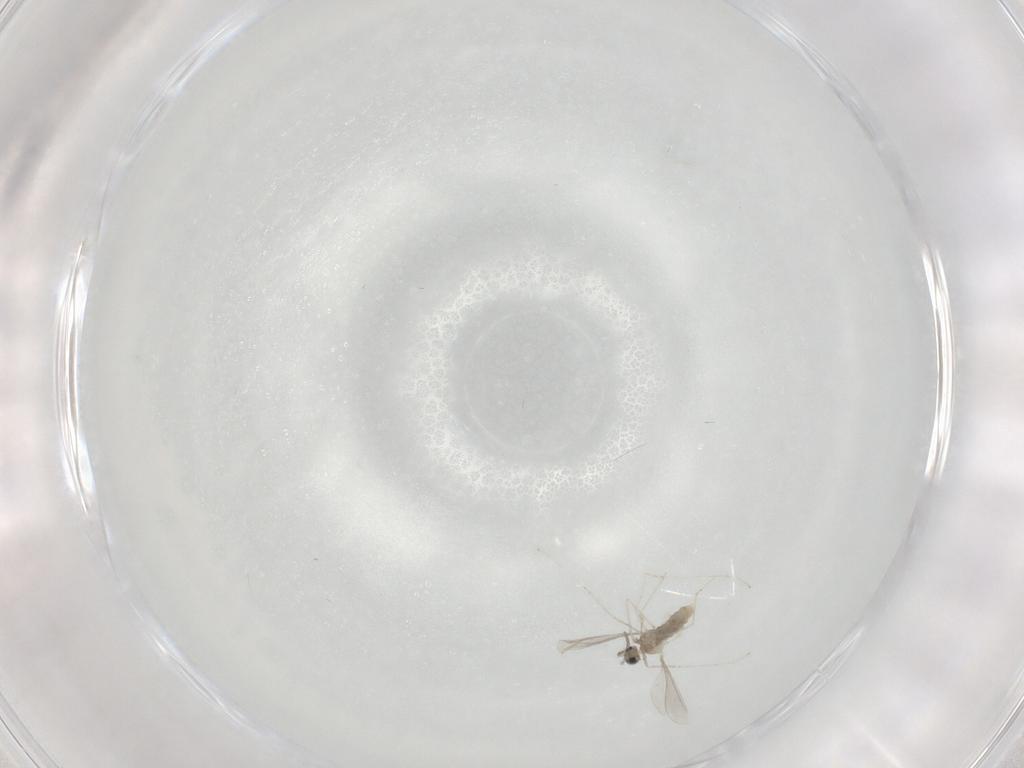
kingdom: Animalia
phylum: Arthropoda
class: Insecta
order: Diptera
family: Cecidomyiidae
